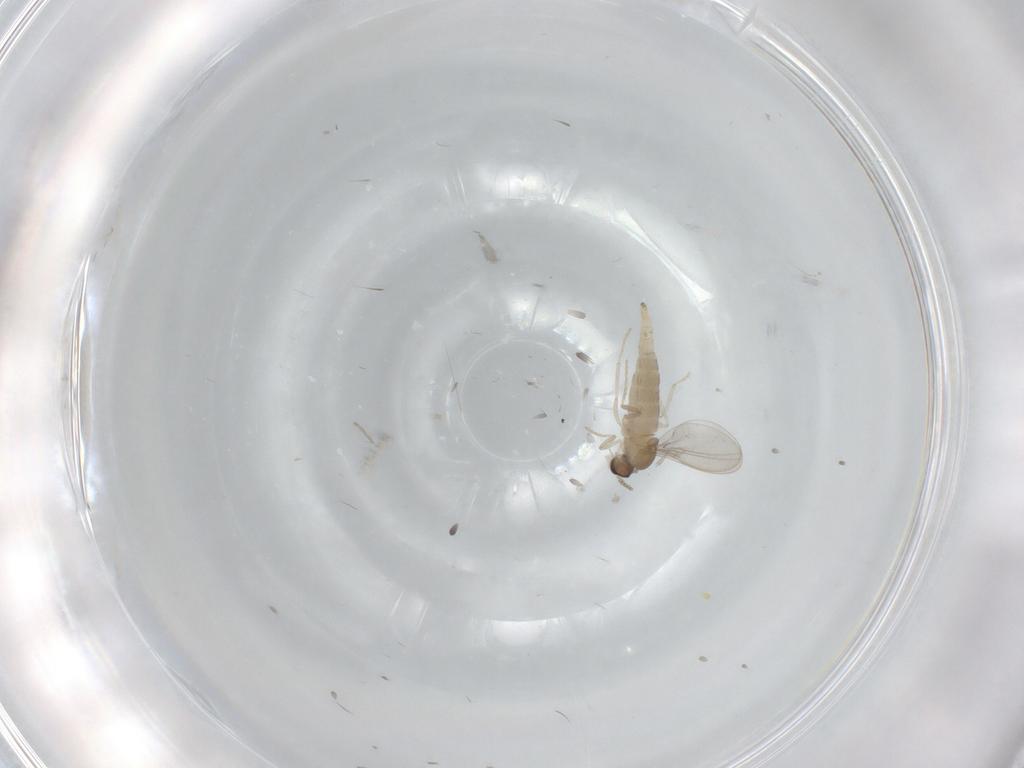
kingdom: Animalia
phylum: Arthropoda
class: Insecta
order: Diptera
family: Cecidomyiidae
